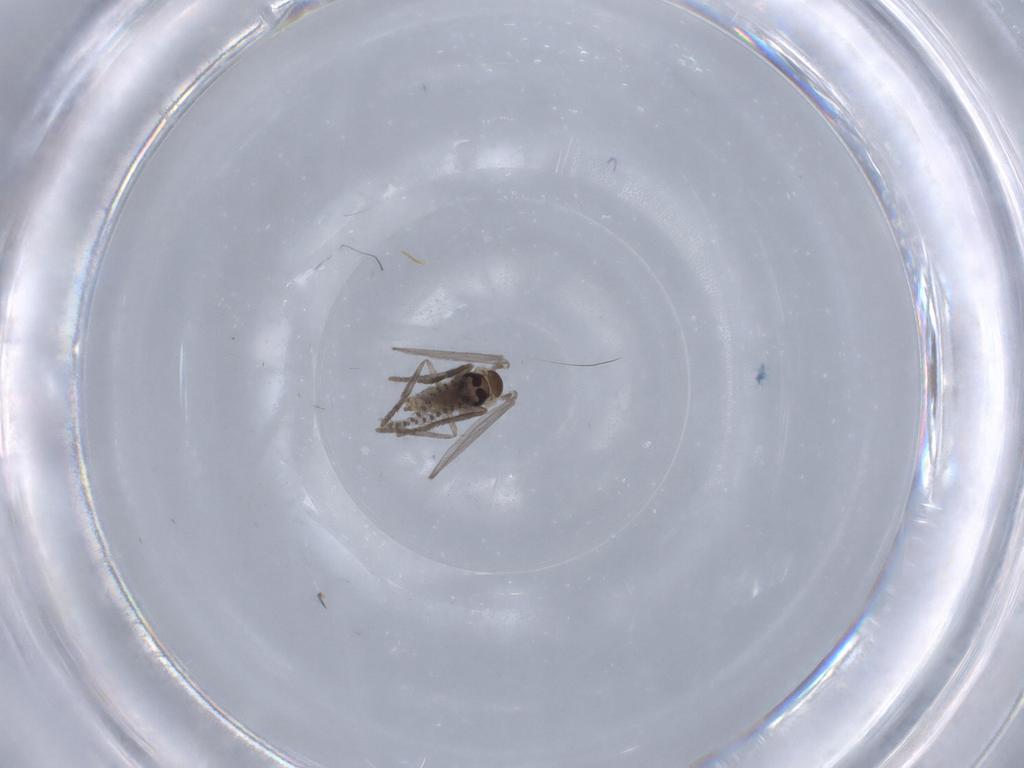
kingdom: Animalia
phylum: Arthropoda
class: Insecta
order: Diptera
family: Psychodidae
